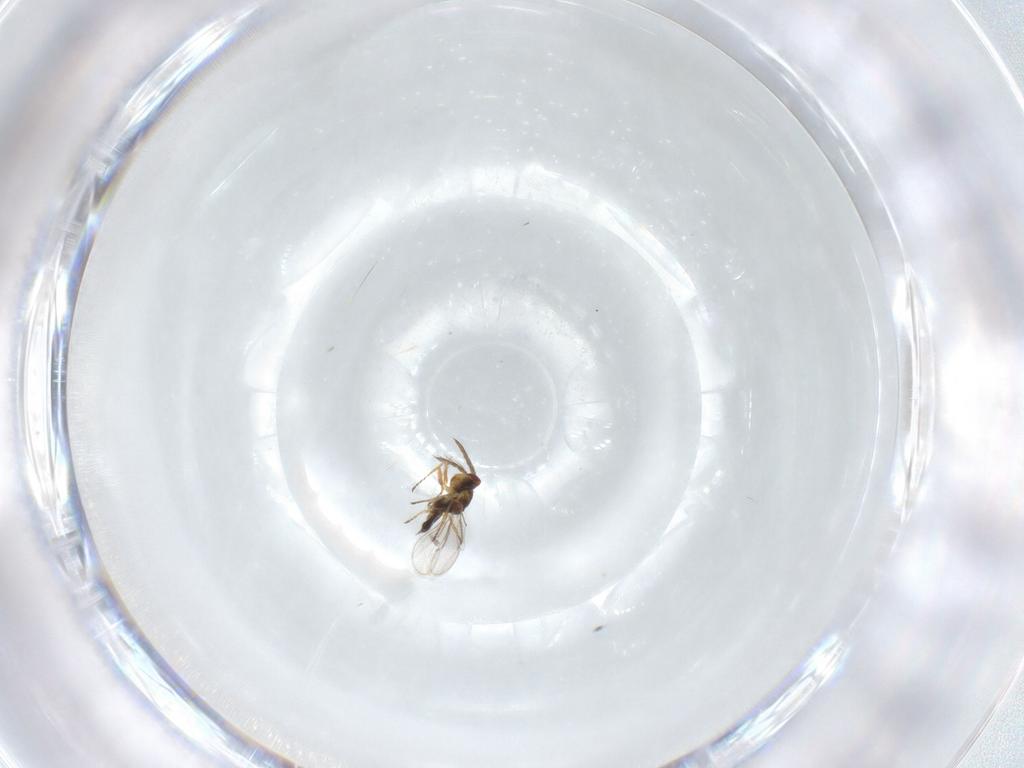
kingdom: Animalia
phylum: Arthropoda
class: Insecta
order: Hymenoptera
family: Eulophidae
